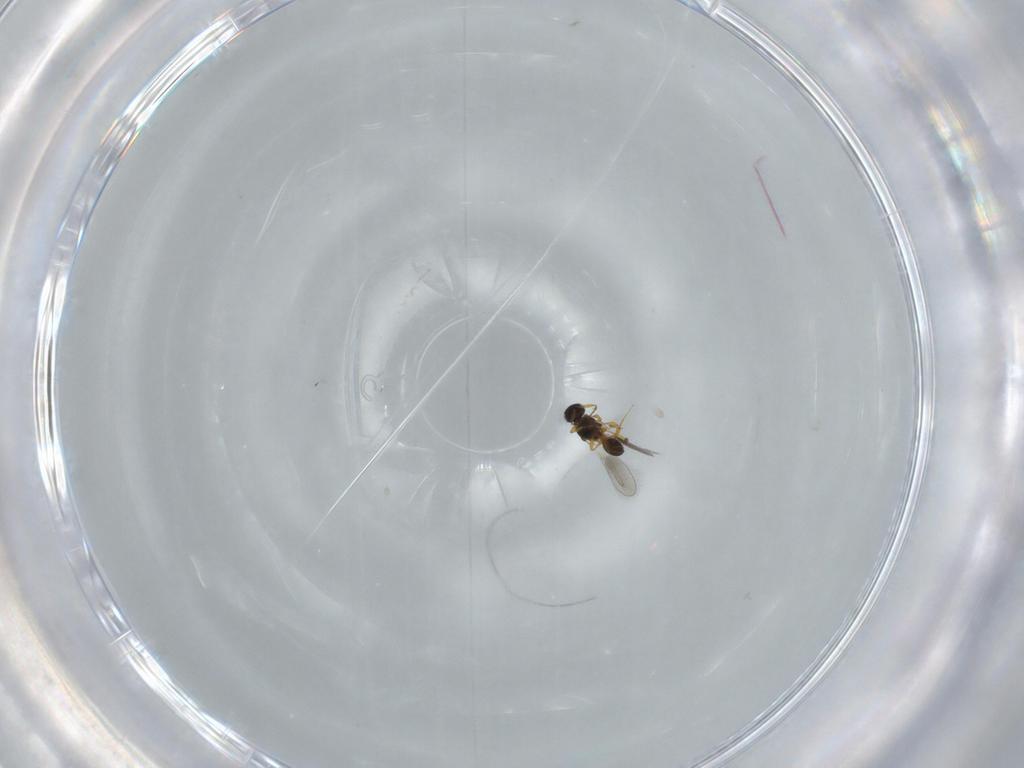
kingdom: Animalia
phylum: Arthropoda
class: Insecta
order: Hymenoptera
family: Platygastridae
